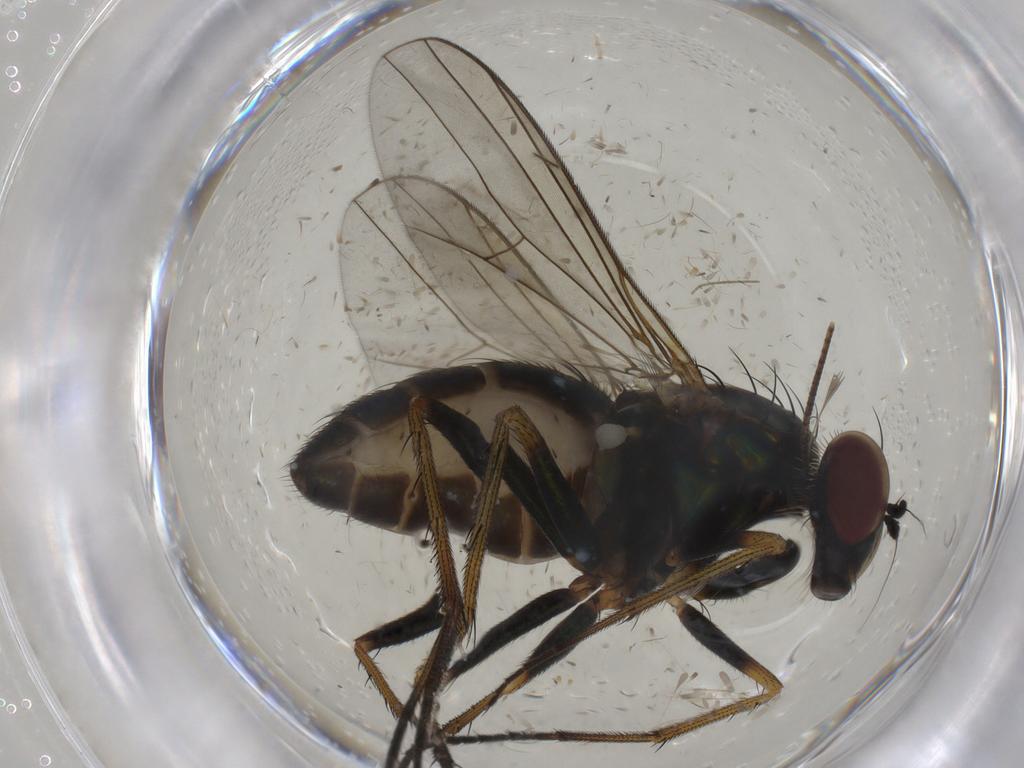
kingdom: Animalia
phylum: Arthropoda
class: Insecta
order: Diptera
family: Dolichopodidae
